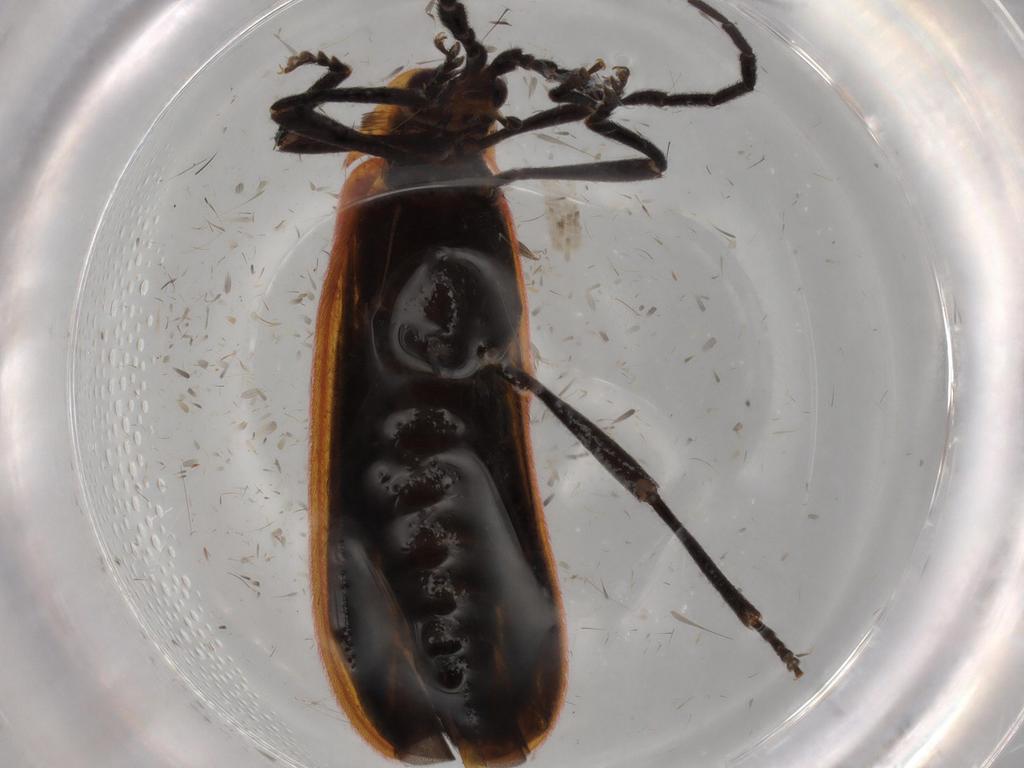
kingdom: Animalia
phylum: Arthropoda
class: Insecta
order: Coleoptera
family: Lycidae
